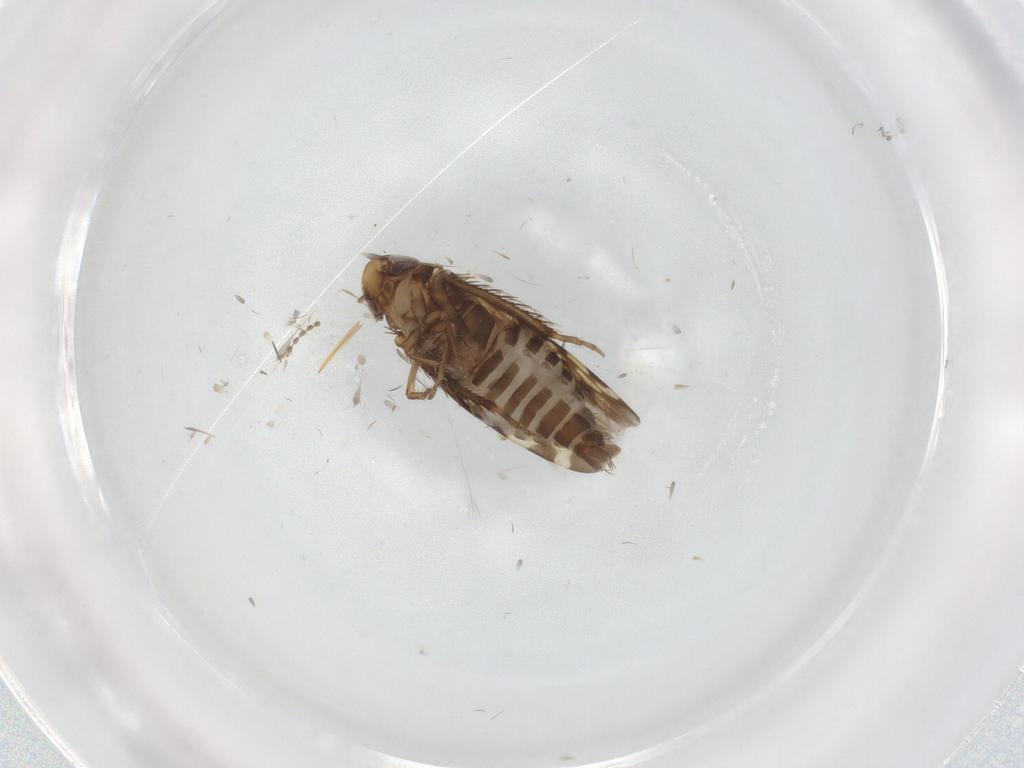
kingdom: Animalia
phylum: Arthropoda
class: Insecta
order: Hemiptera
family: Cicadellidae
